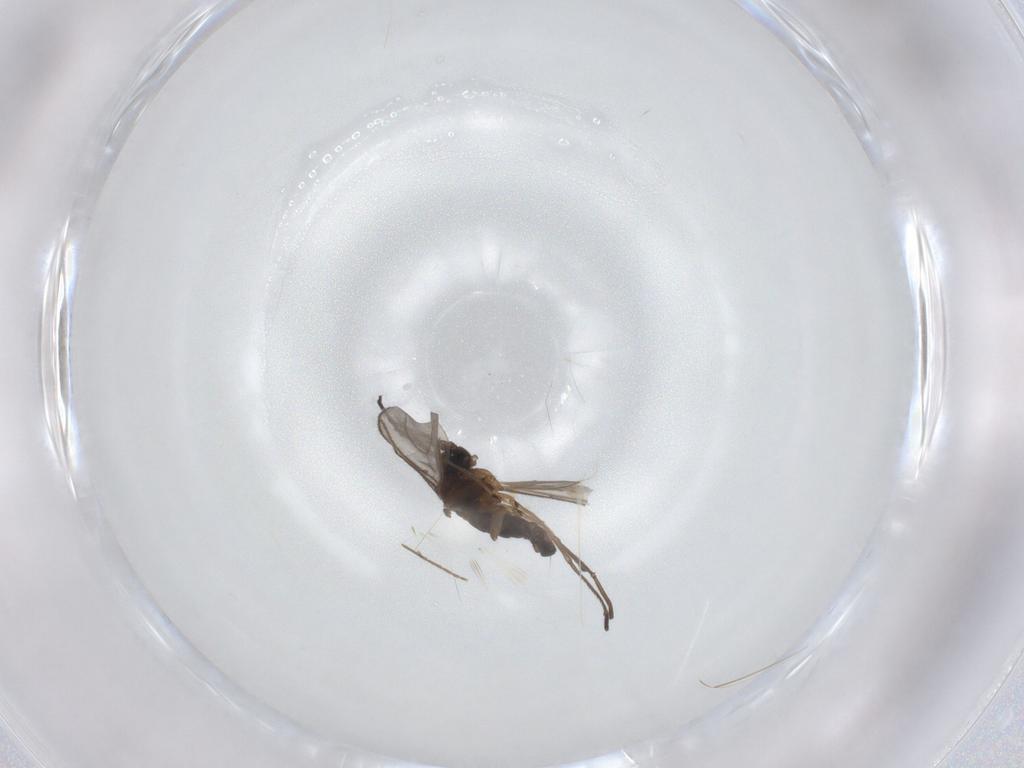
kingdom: Animalia
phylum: Arthropoda
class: Insecta
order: Diptera
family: Sciaridae
